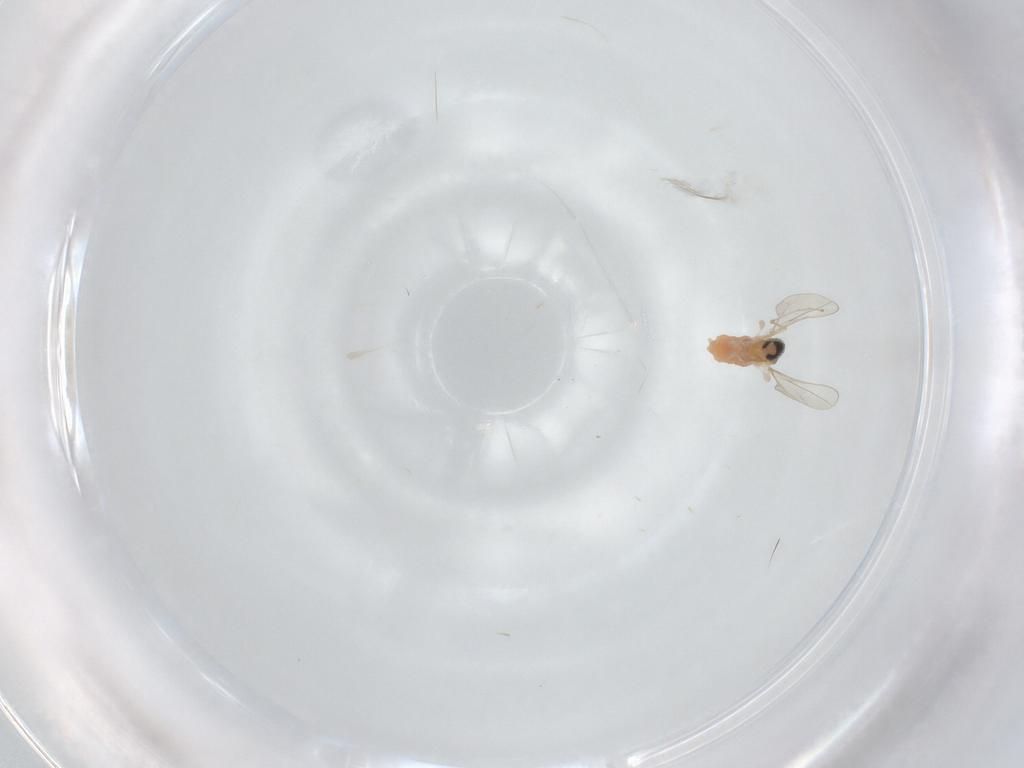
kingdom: Animalia
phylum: Arthropoda
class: Insecta
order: Diptera
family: Cecidomyiidae
